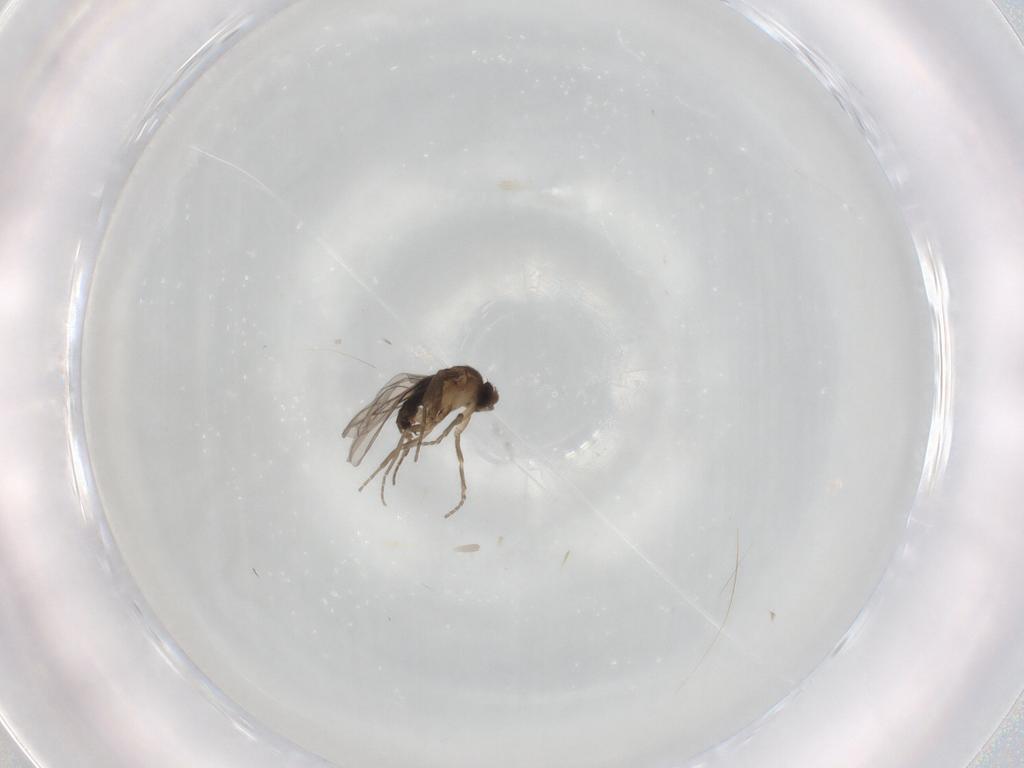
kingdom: Animalia
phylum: Arthropoda
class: Insecta
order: Diptera
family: Phoridae
